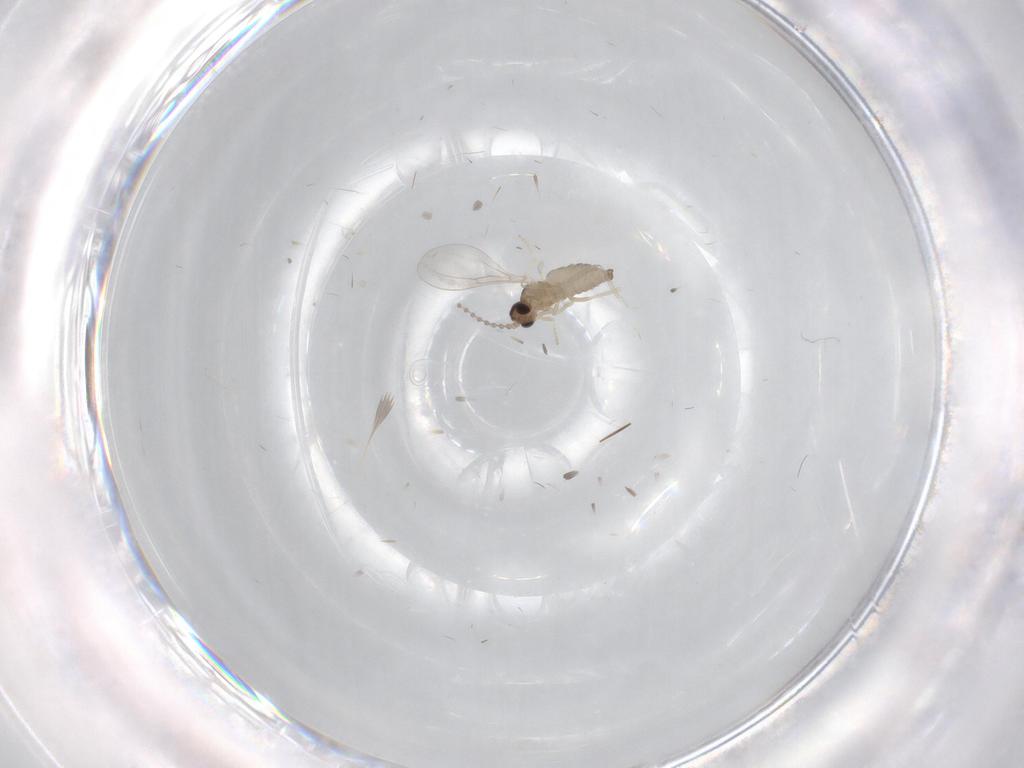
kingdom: Animalia
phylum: Arthropoda
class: Insecta
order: Diptera
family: Cecidomyiidae
